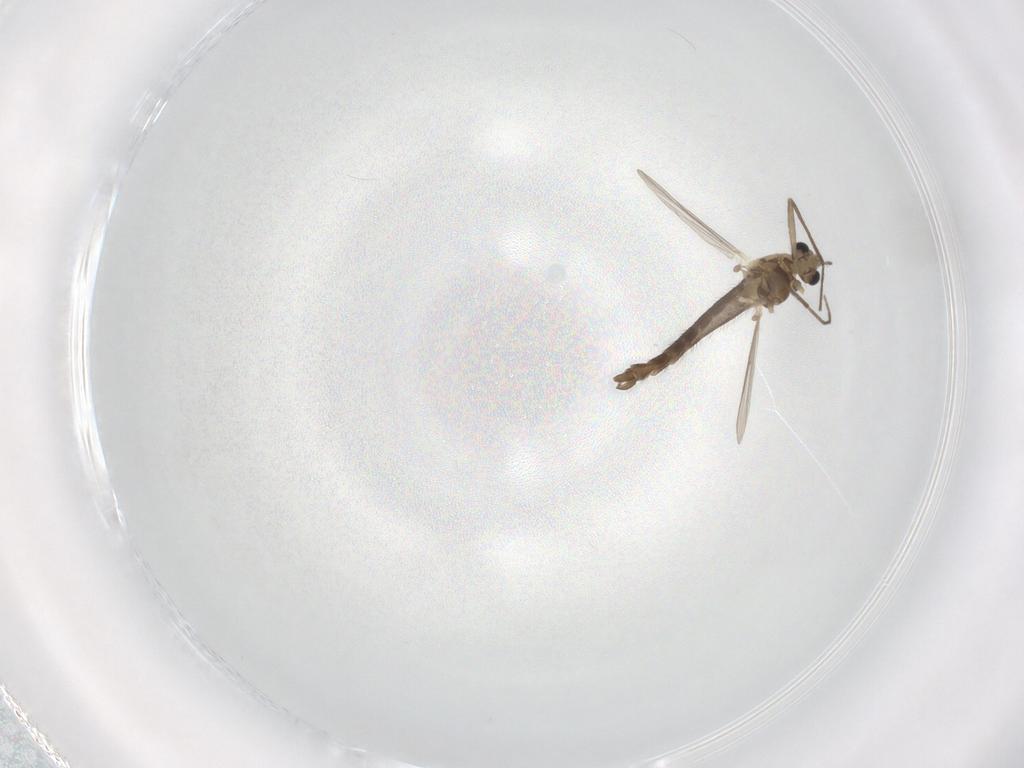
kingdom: Animalia
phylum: Arthropoda
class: Insecta
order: Diptera
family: Chironomidae
